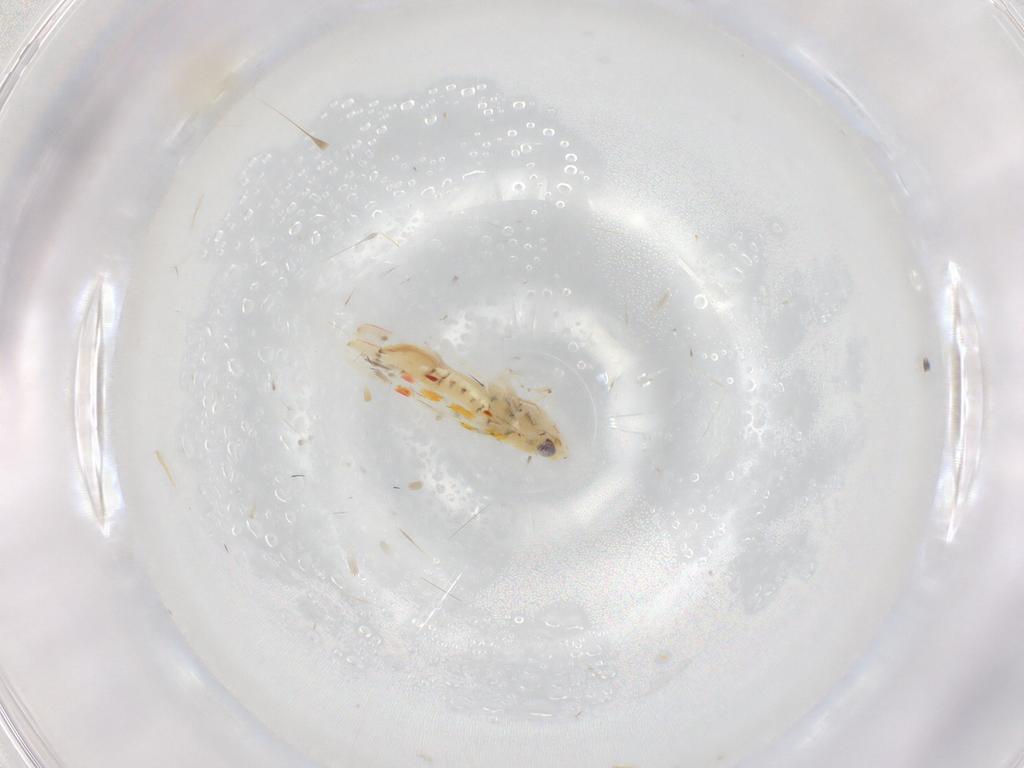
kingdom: Animalia
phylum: Arthropoda
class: Insecta
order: Hemiptera
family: Aleyrodidae
